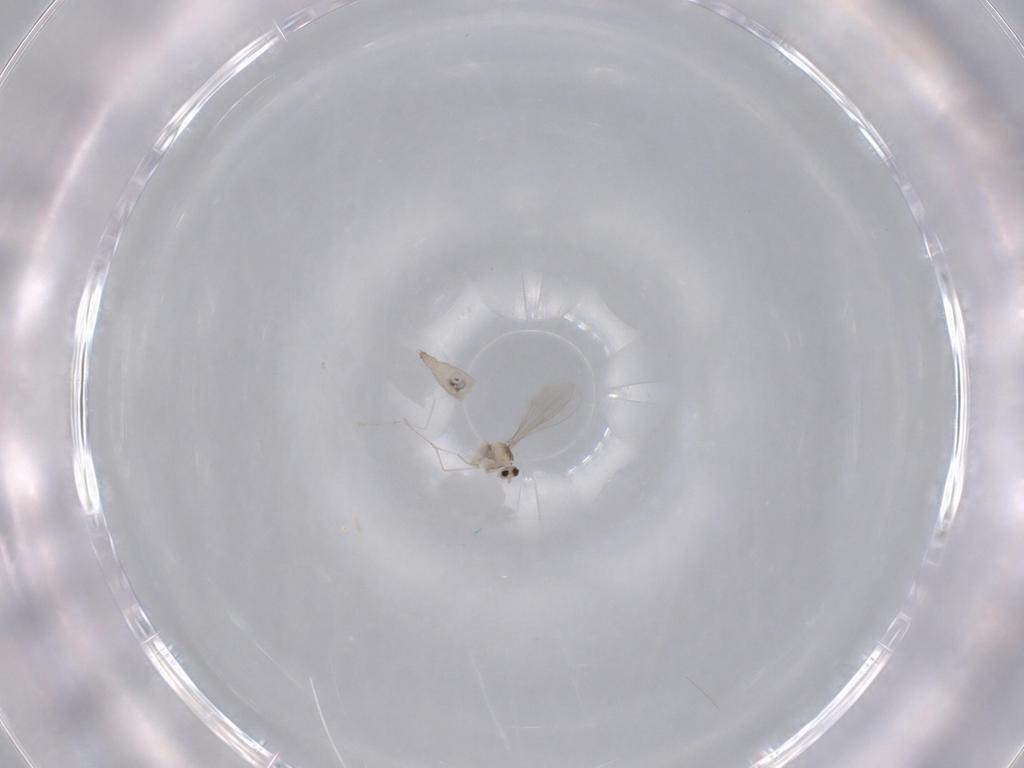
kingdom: Animalia
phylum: Arthropoda
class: Insecta
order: Diptera
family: Cecidomyiidae
